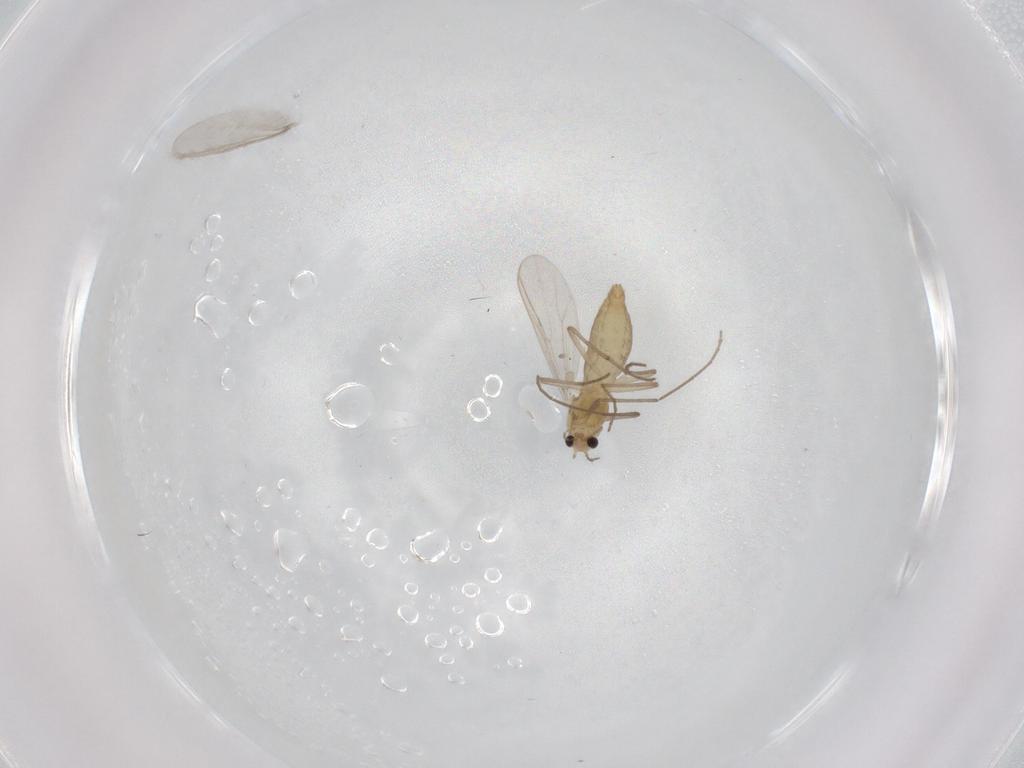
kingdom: Animalia
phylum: Arthropoda
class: Insecta
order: Diptera
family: Chironomidae
